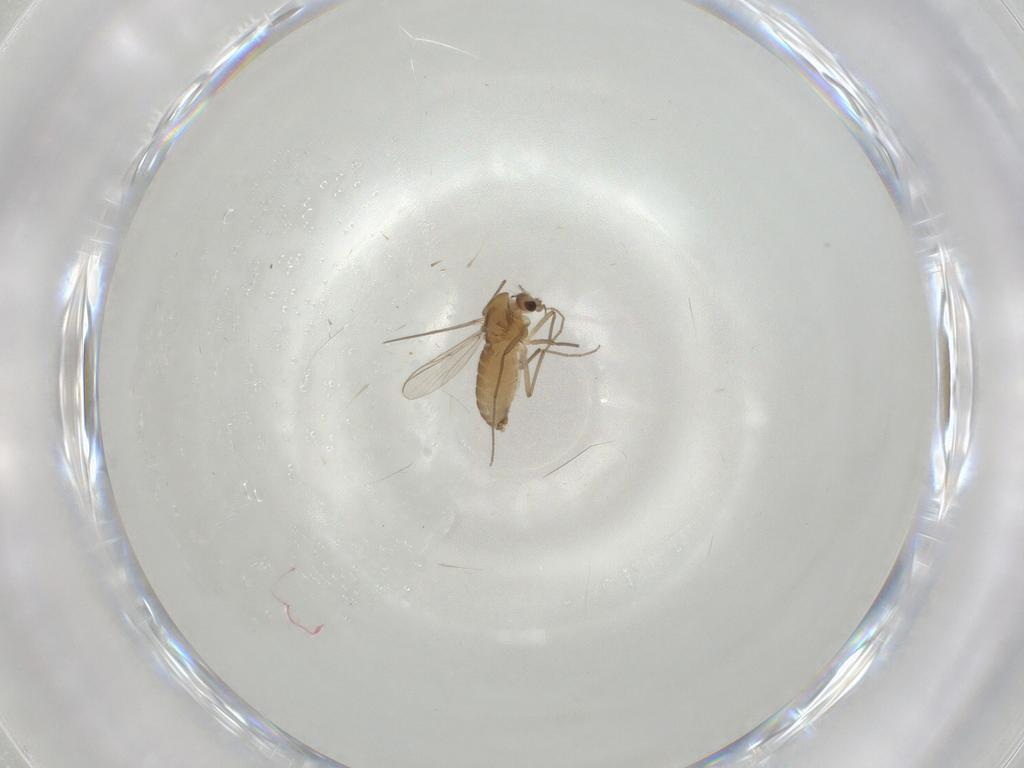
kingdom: Animalia
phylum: Arthropoda
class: Insecta
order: Diptera
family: Chironomidae
